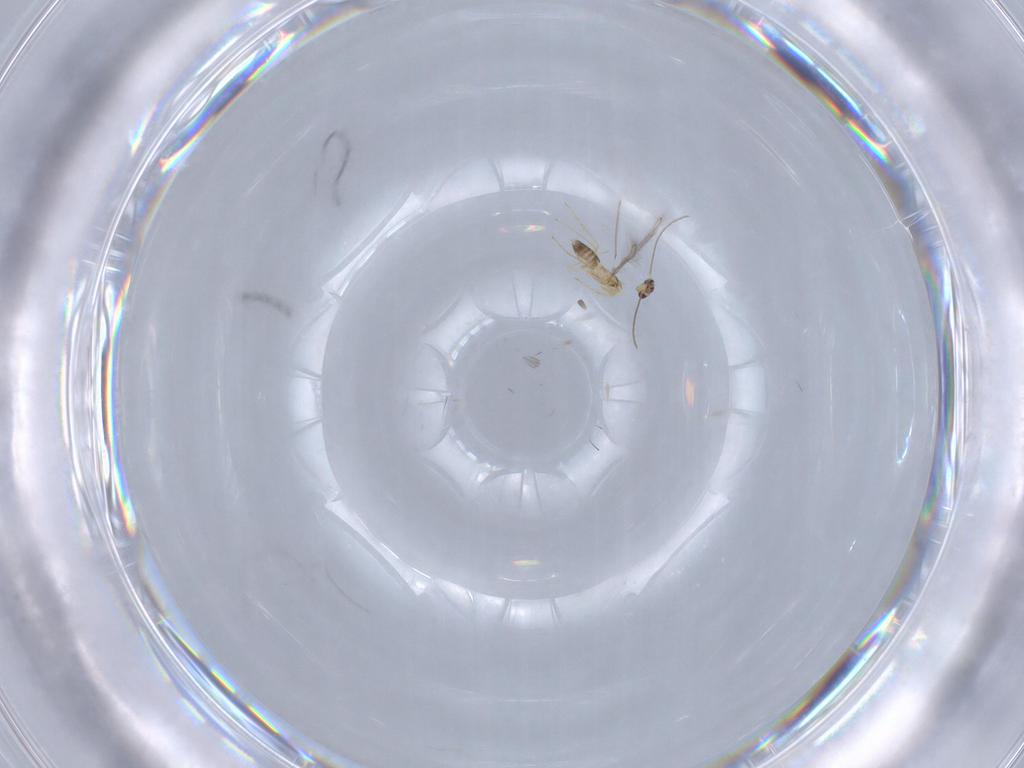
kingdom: Animalia
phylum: Arthropoda
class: Insecta
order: Hymenoptera
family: Mymaridae
